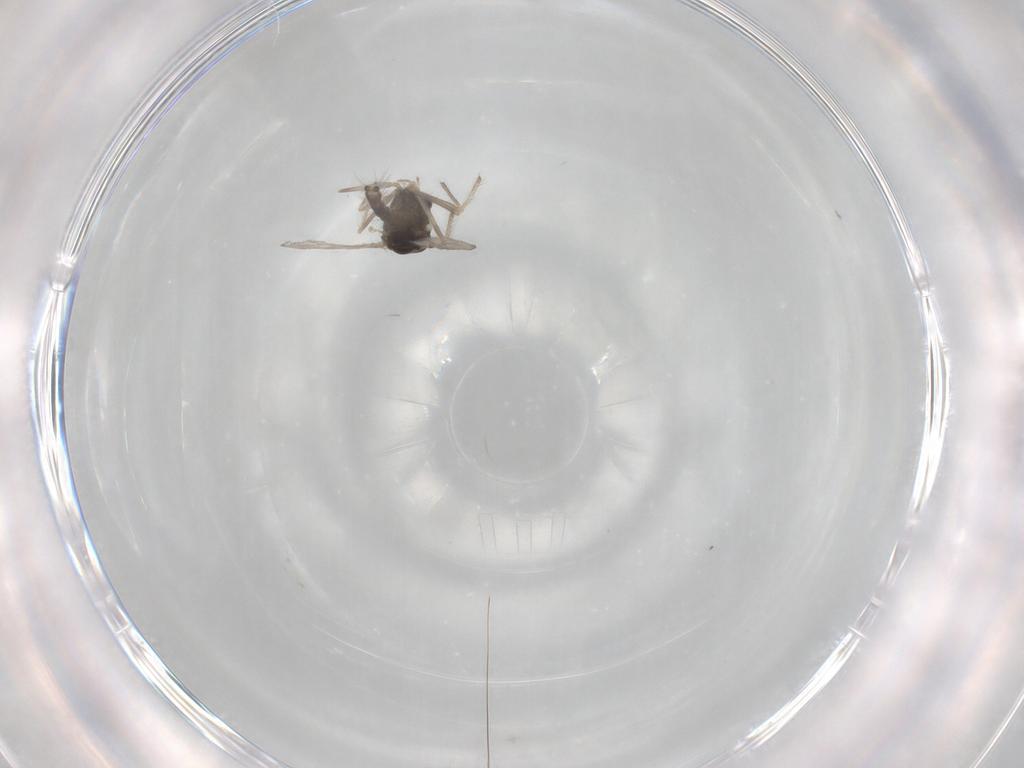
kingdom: Animalia
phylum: Arthropoda
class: Insecta
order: Diptera
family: Chironomidae
